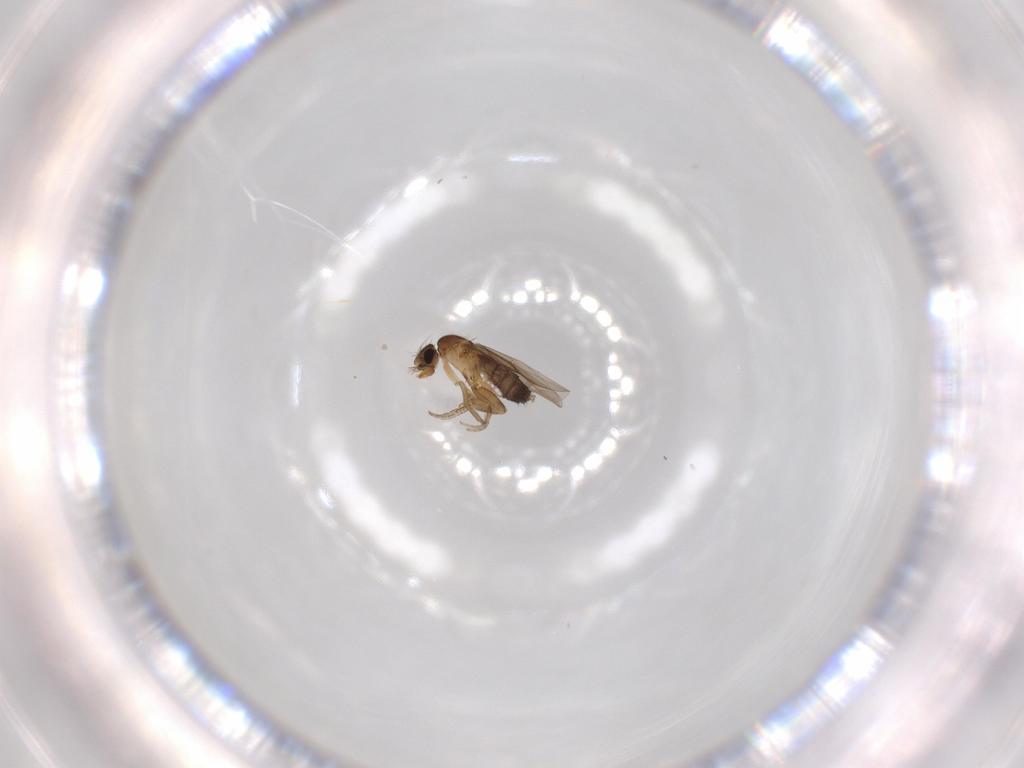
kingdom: Animalia
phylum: Arthropoda
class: Insecta
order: Diptera
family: Phoridae
